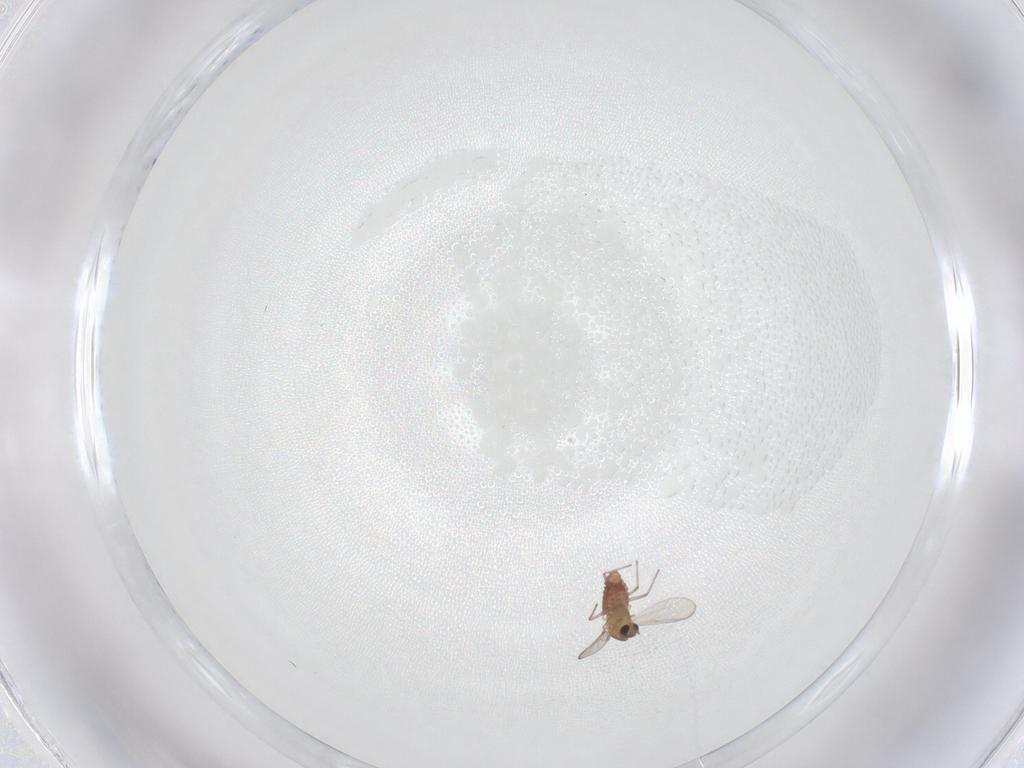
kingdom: Animalia
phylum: Arthropoda
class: Insecta
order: Diptera
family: Chironomidae
